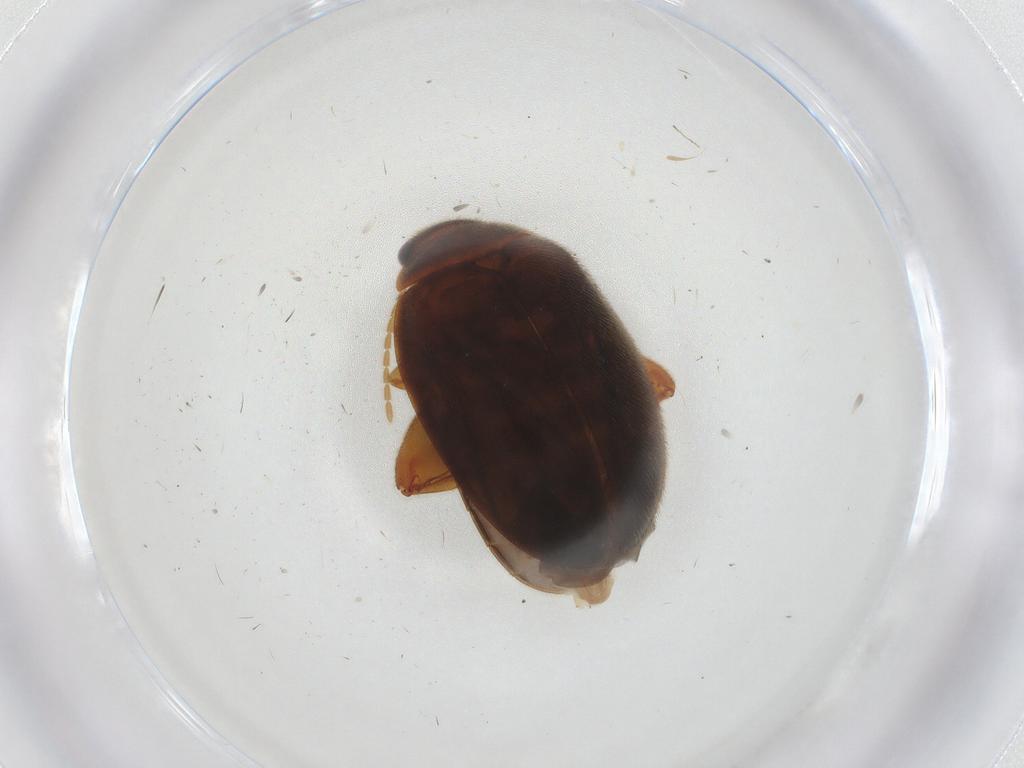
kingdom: Animalia
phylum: Arthropoda
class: Insecta
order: Coleoptera
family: Scirtidae
